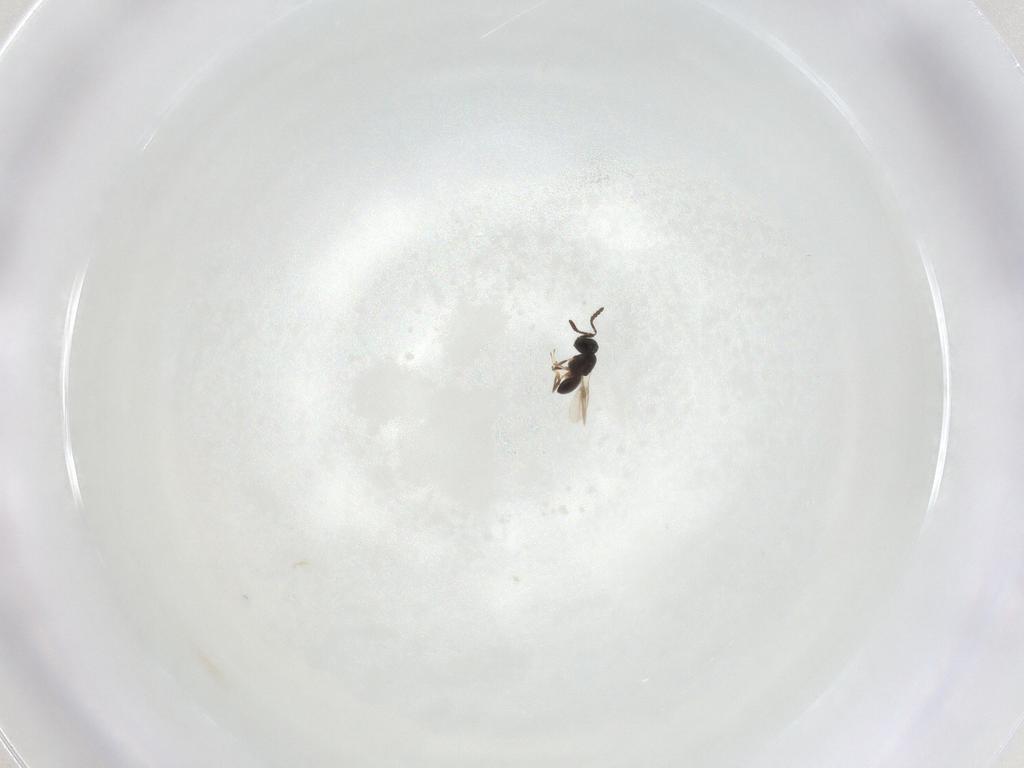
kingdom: Animalia
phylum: Arthropoda
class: Insecta
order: Hymenoptera
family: Scelionidae
